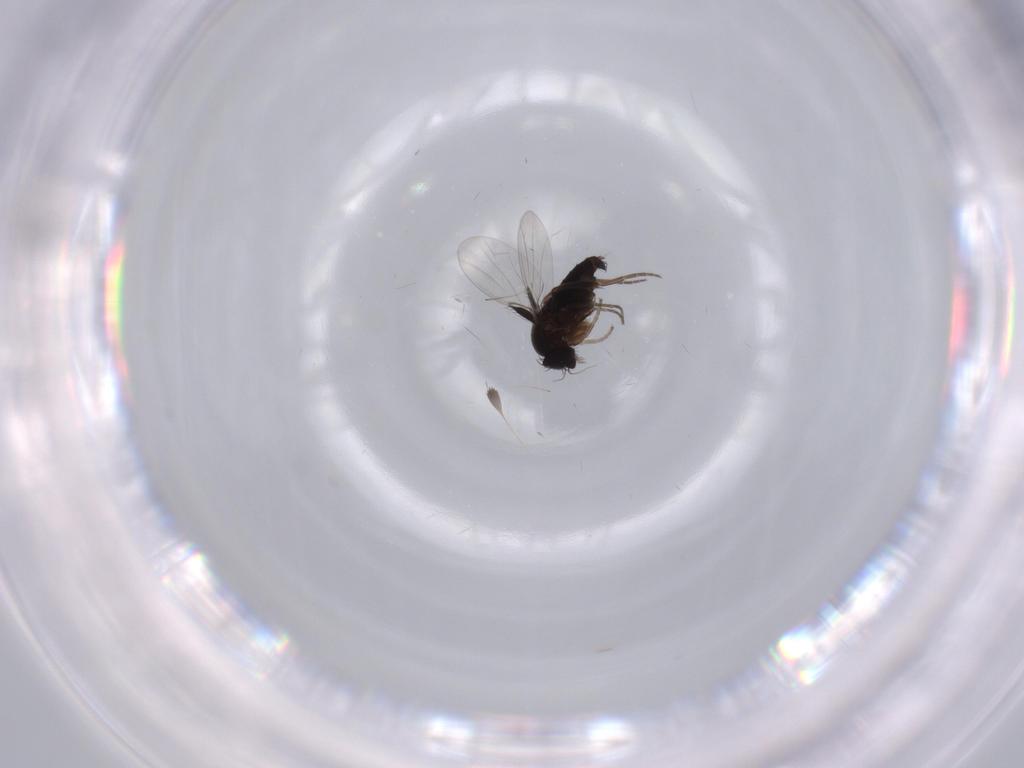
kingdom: Animalia
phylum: Arthropoda
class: Insecta
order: Diptera
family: Phoridae
